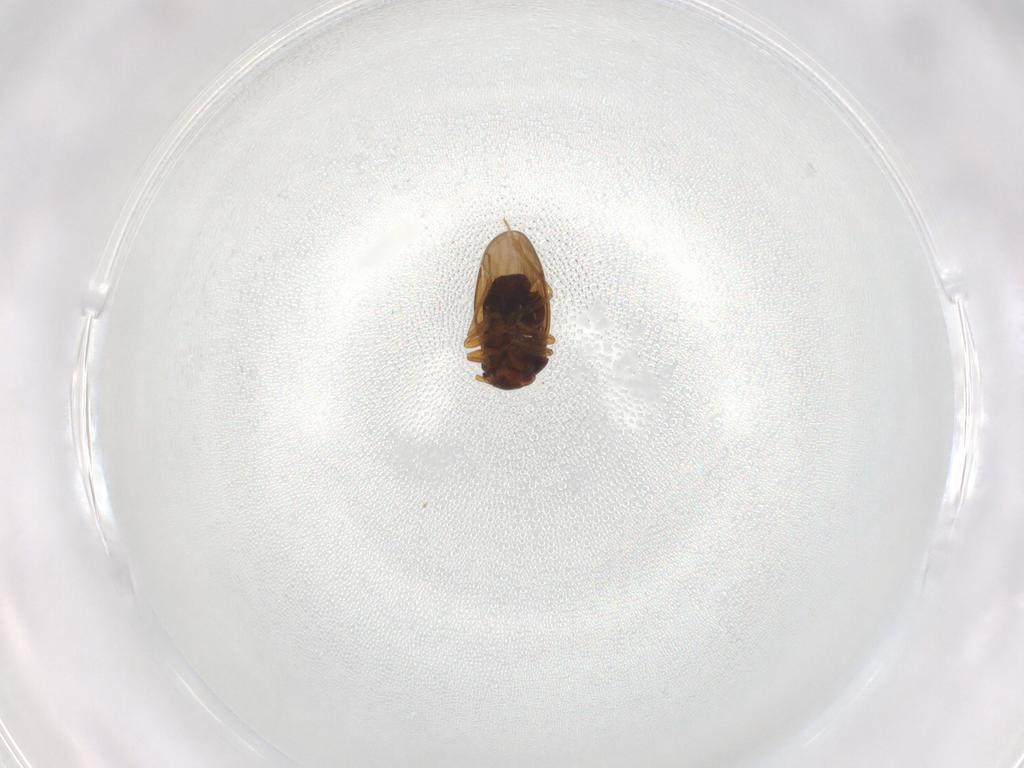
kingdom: Animalia
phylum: Arthropoda
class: Insecta
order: Hemiptera
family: Schizopteridae
